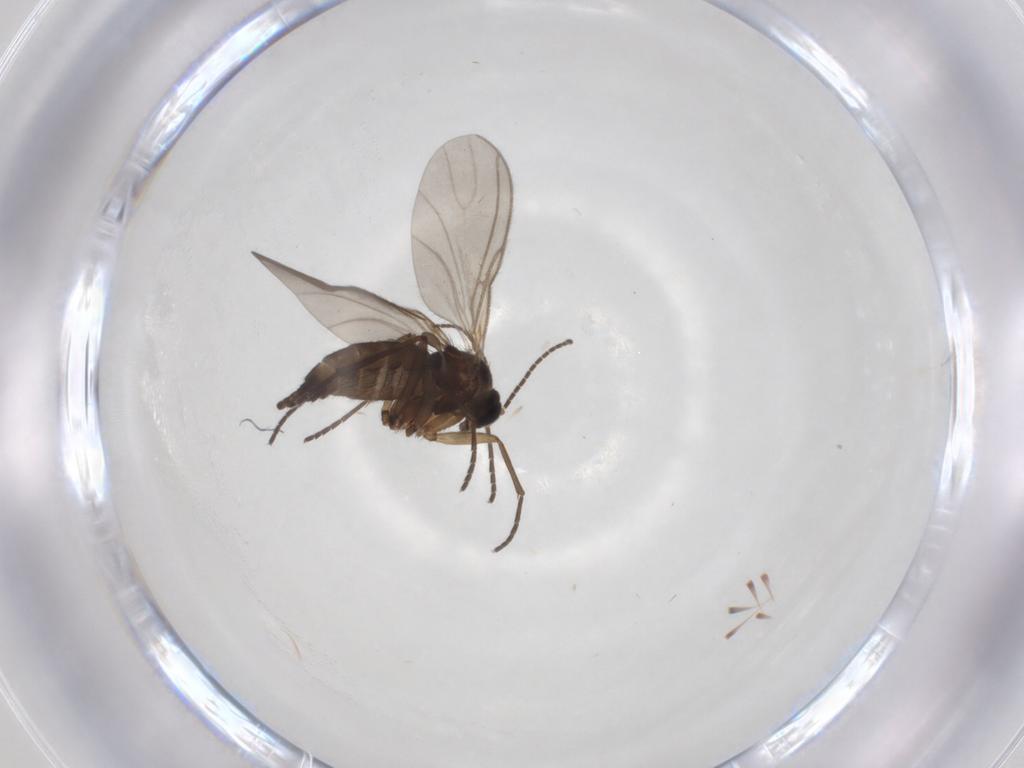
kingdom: Animalia
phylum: Arthropoda
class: Insecta
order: Diptera
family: Sciaridae
